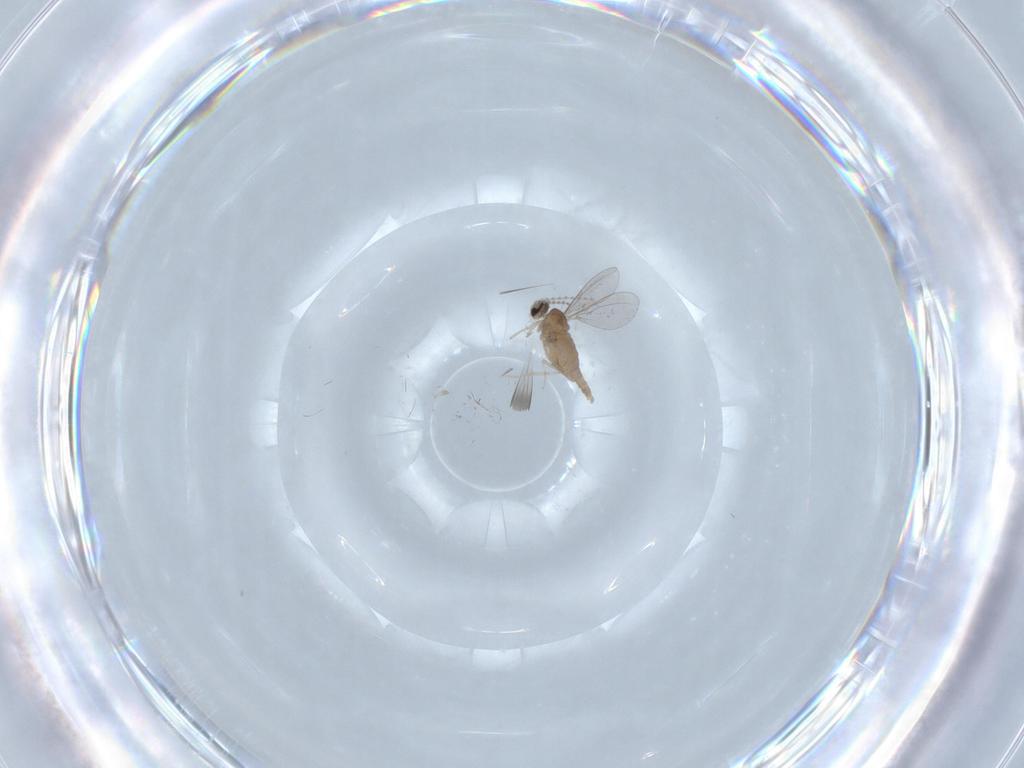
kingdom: Animalia
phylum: Arthropoda
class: Insecta
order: Diptera
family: Cecidomyiidae
